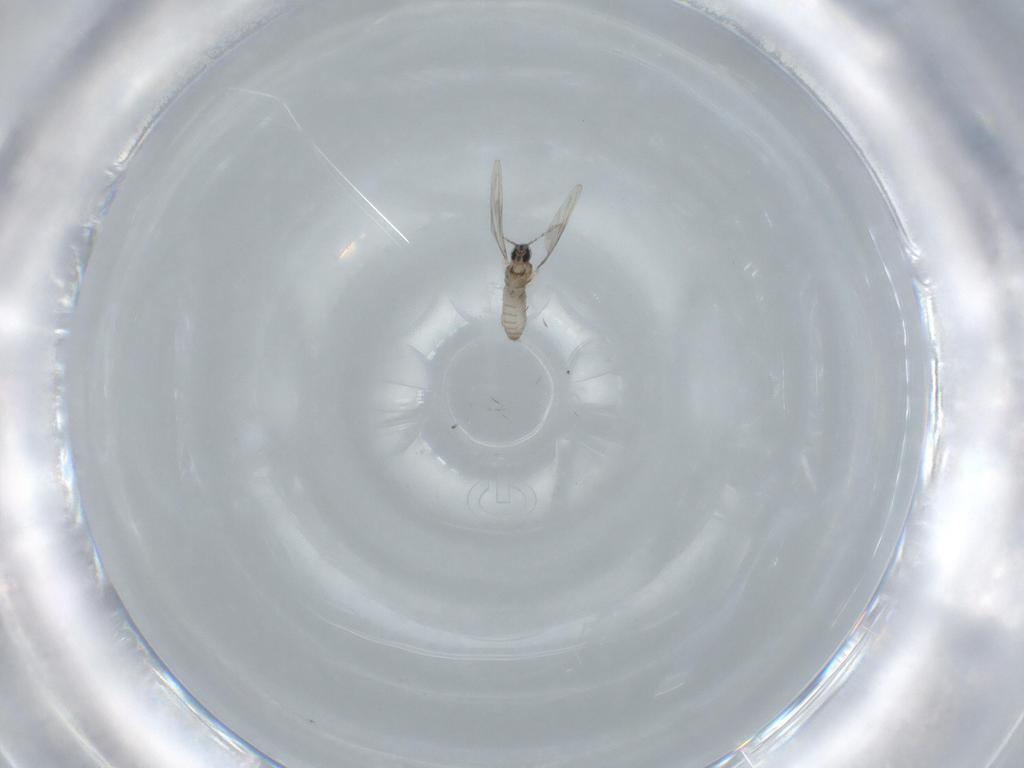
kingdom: Animalia
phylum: Arthropoda
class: Insecta
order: Diptera
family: Cecidomyiidae
